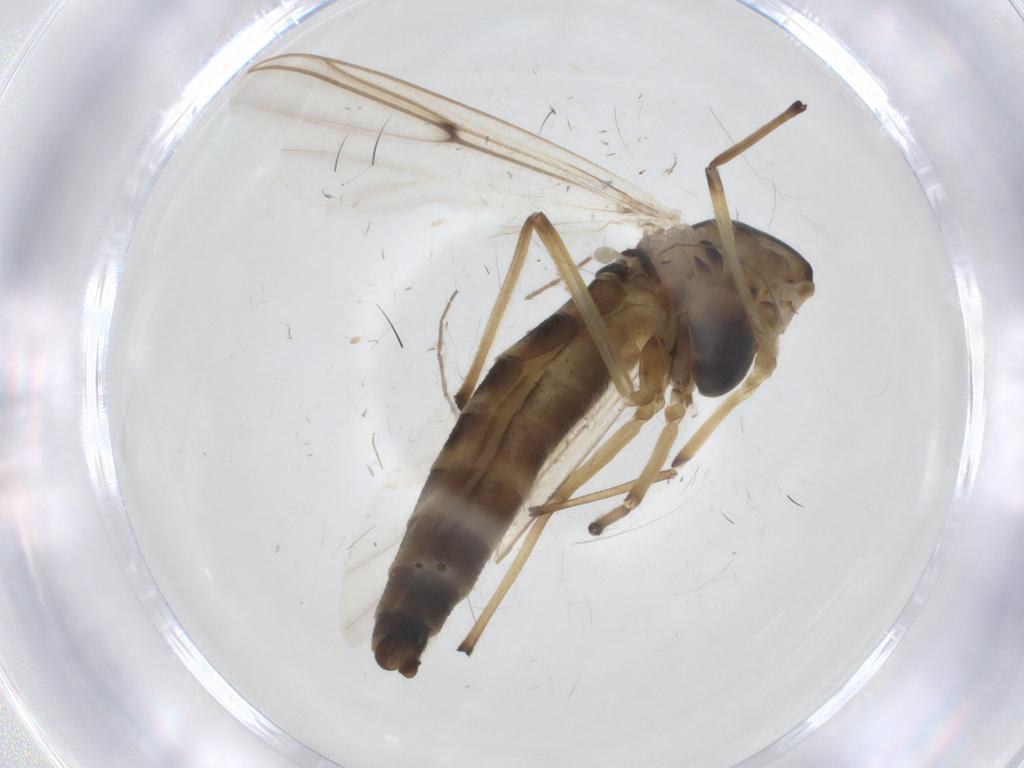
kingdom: Animalia
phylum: Arthropoda
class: Insecta
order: Diptera
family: Chironomidae
